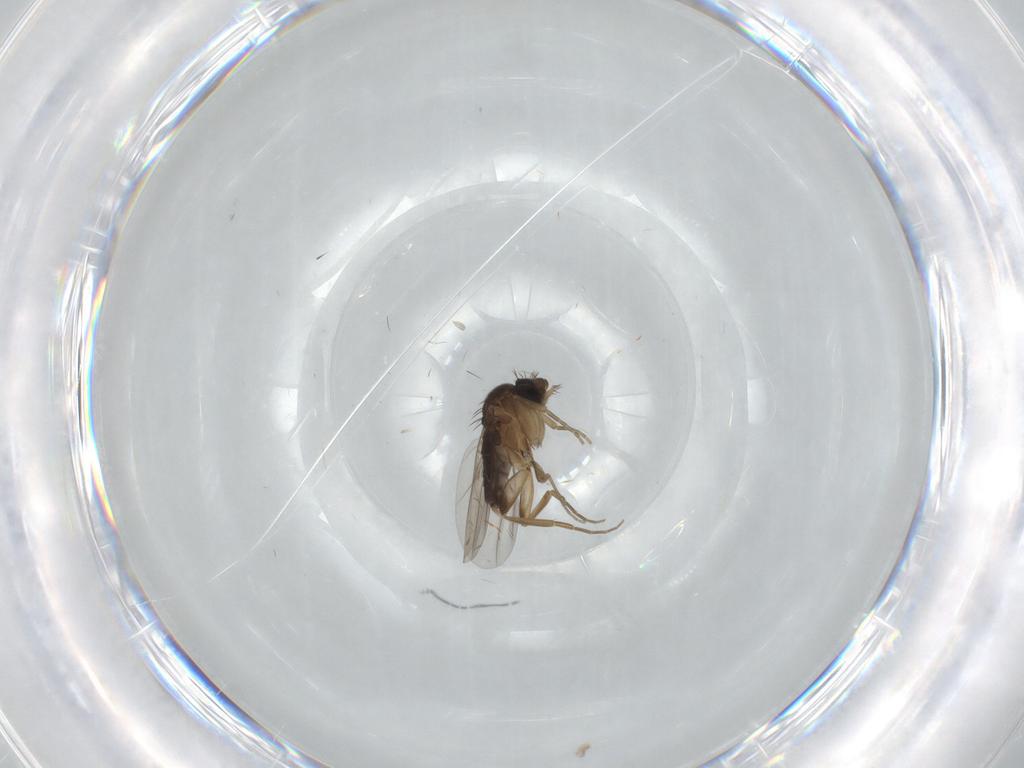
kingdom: Animalia
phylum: Arthropoda
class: Insecta
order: Diptera
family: Phoridae
